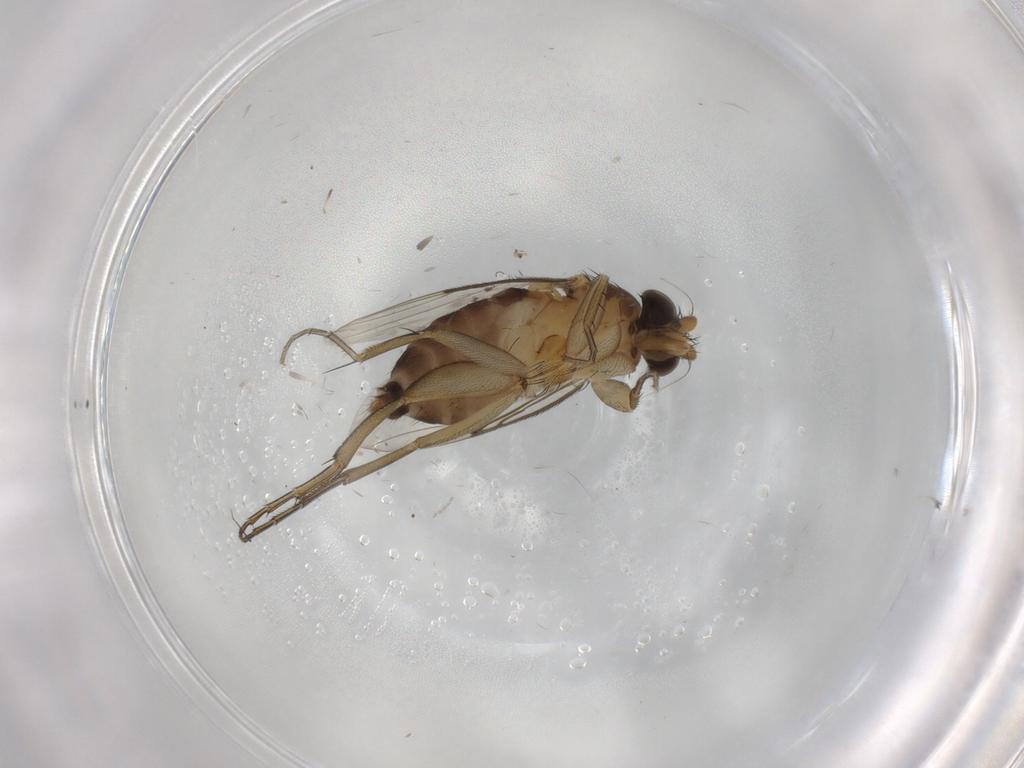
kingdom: Animalia
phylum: Arthropoda
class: Insecta
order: Diptera
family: Phoridae
